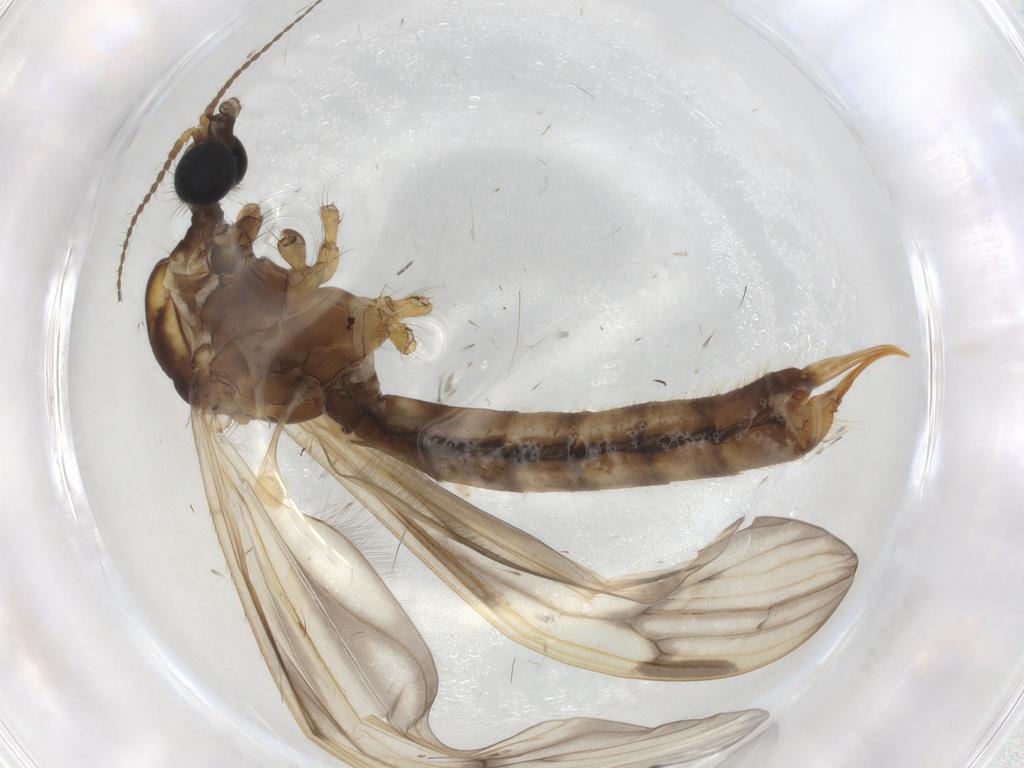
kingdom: Animalia
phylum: Arthropoda
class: Insecta
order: Diptera
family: Limoniidae
